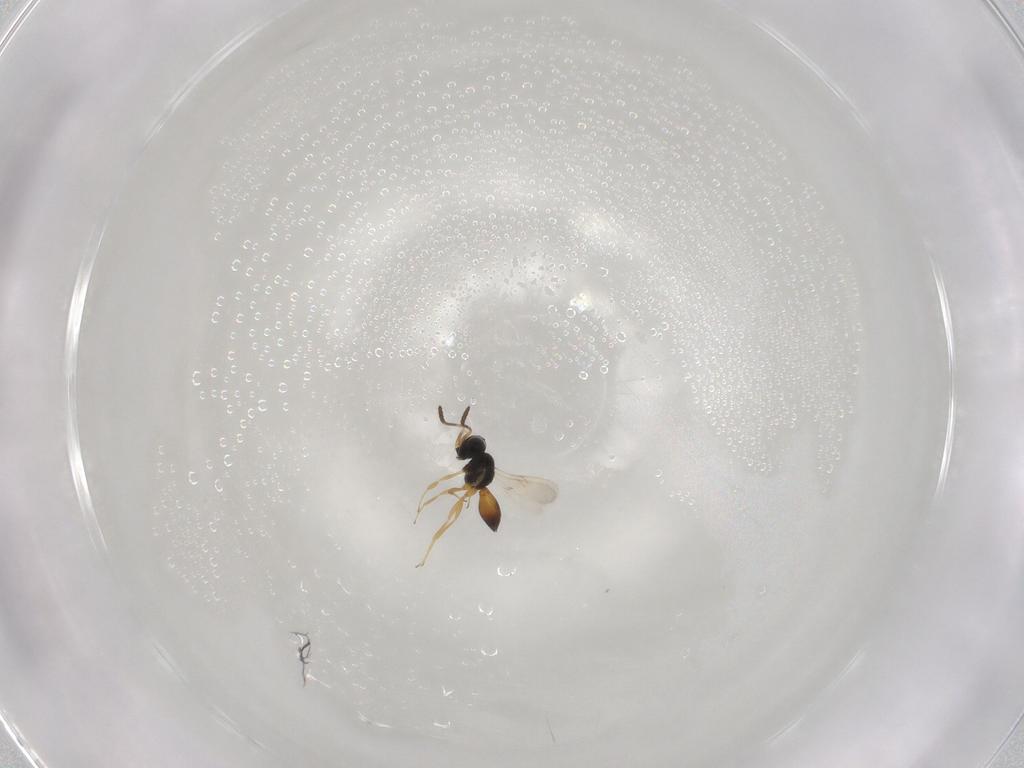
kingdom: Animalia
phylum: Arthropoda
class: Insecta
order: Hymenoptera
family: Scelionidae
